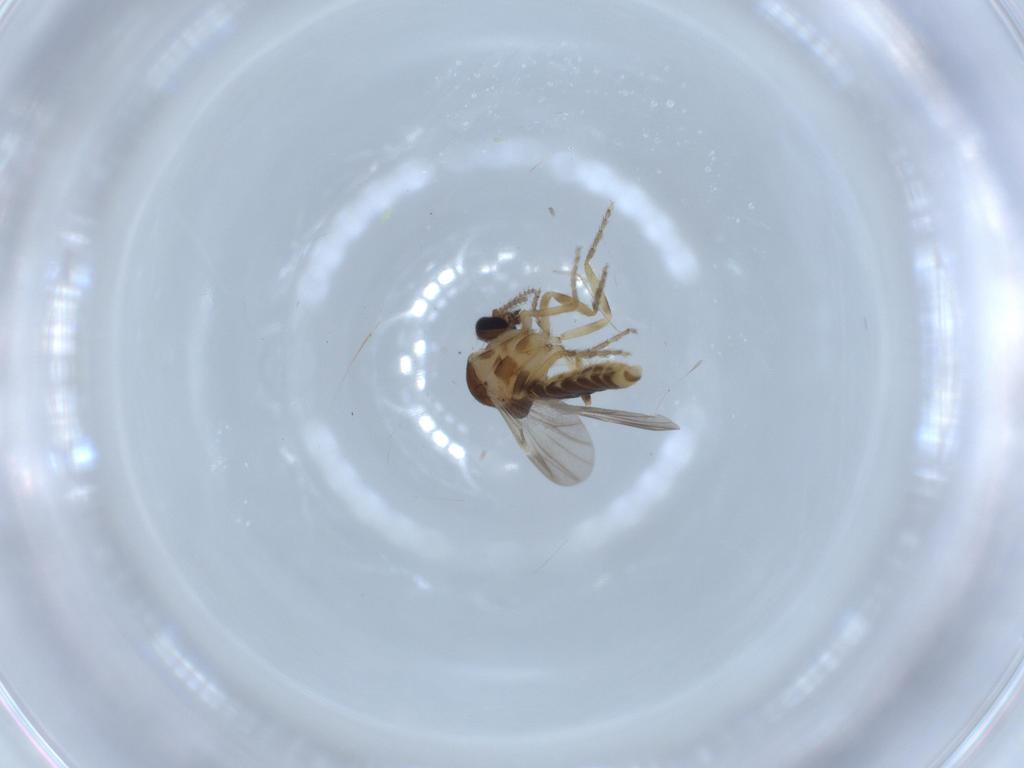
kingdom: Animalia
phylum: Arthropoda
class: Insecta
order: Diptera
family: Ceratopogonidae
